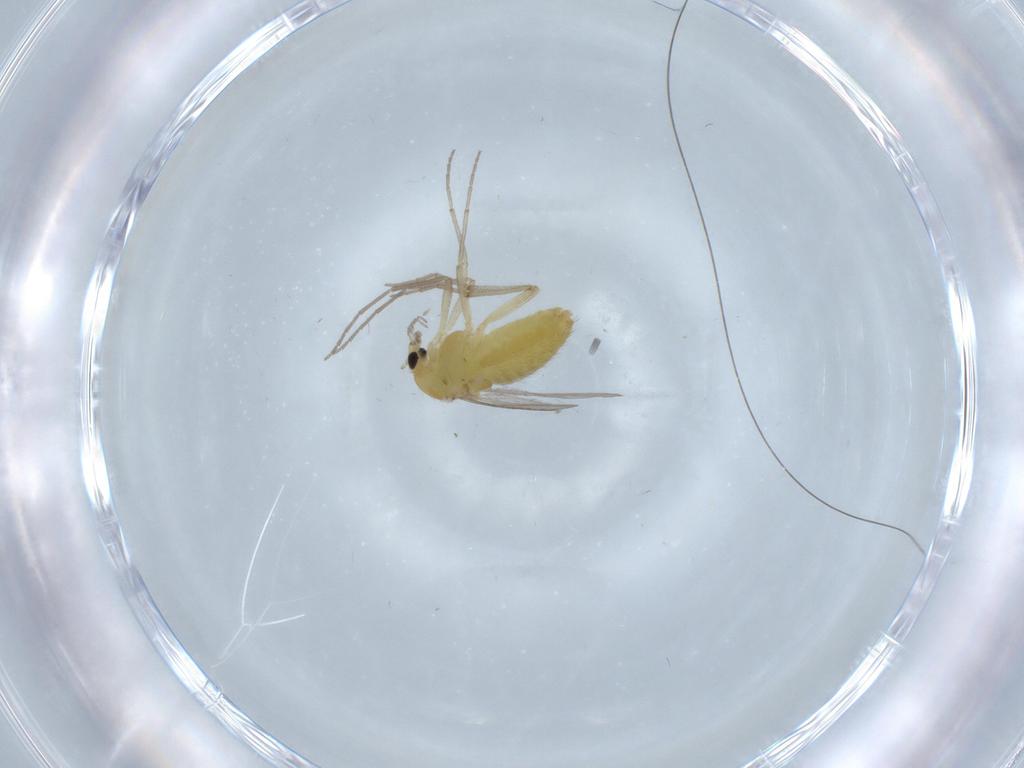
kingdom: Animalia
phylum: Arthropoda
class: Insecta
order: Diptera
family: Chironomidae
